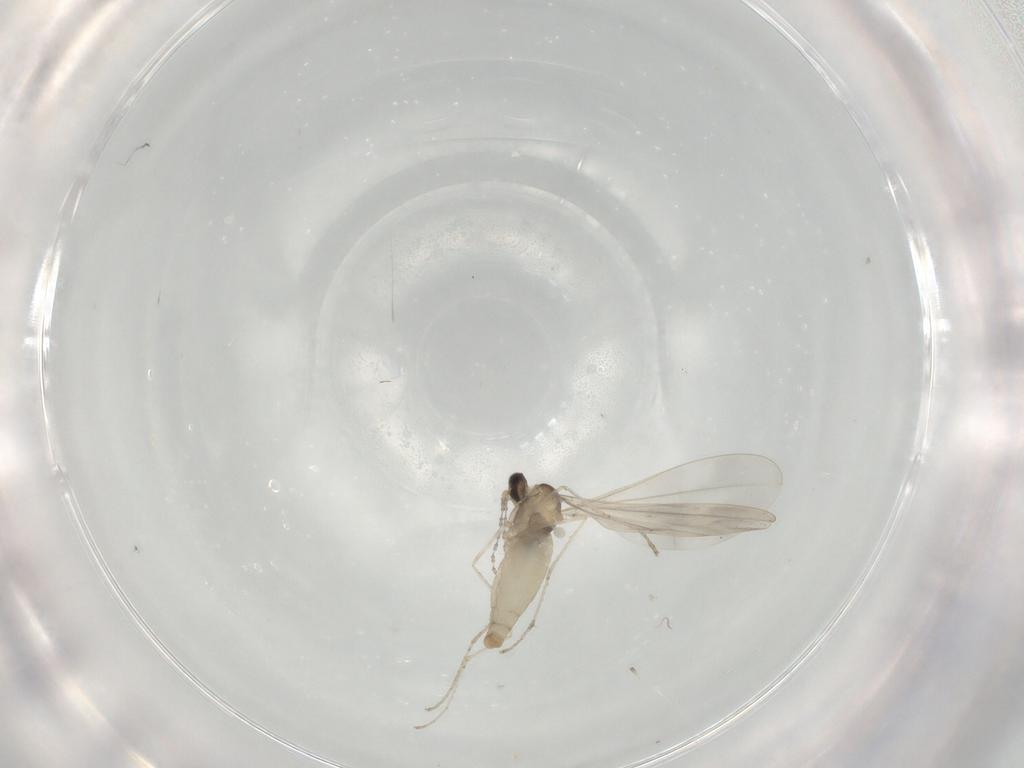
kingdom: Animalia
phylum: Arthropoda
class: Insecta
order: Diptera
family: Cecidomyiidae
